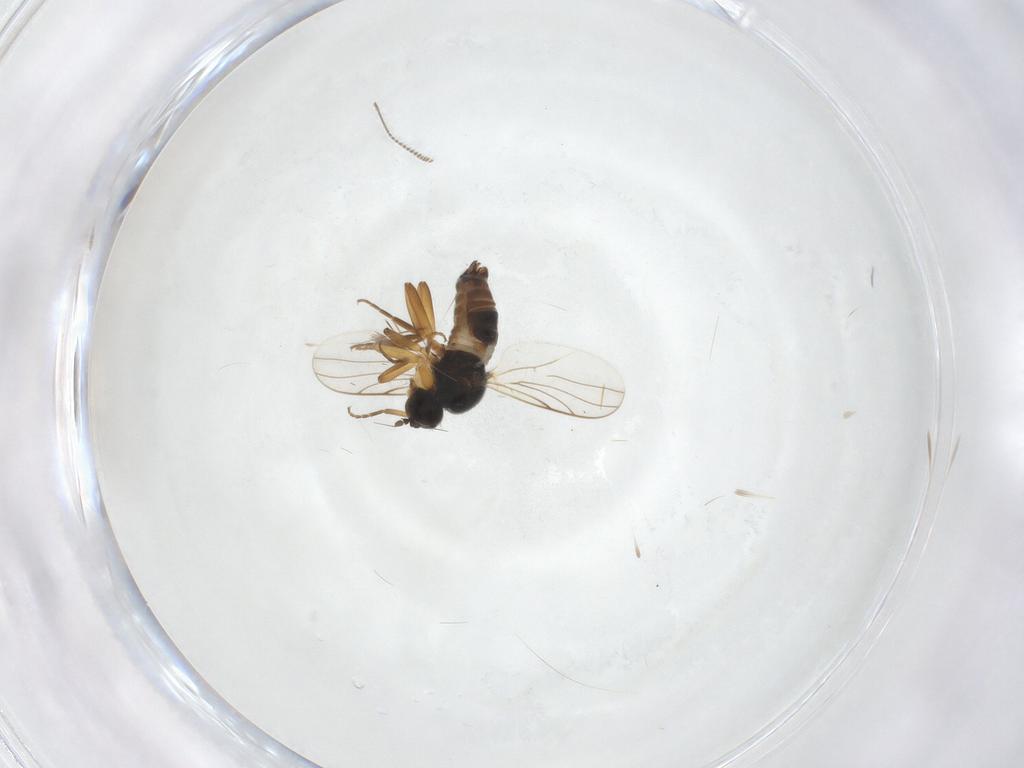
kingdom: Animalia
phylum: Arthropoda
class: Insecta
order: Diptera
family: Hybotidae
